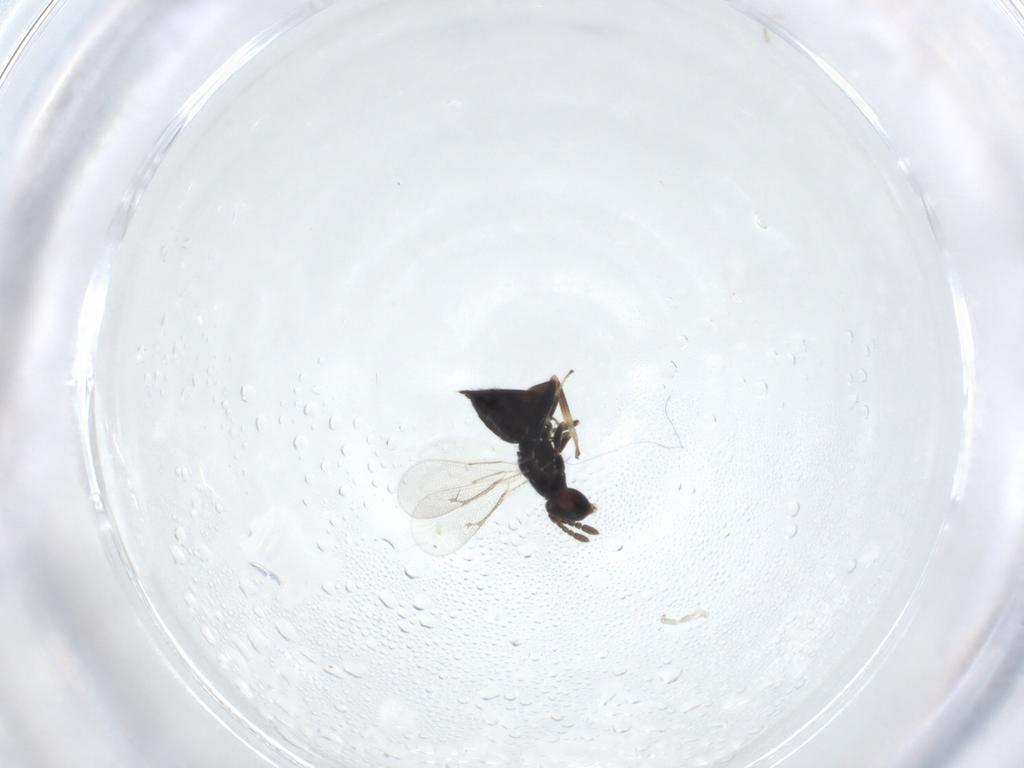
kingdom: Animalia
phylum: Arthropoda
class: Insecta
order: Hymenoptera
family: Eulophidae
